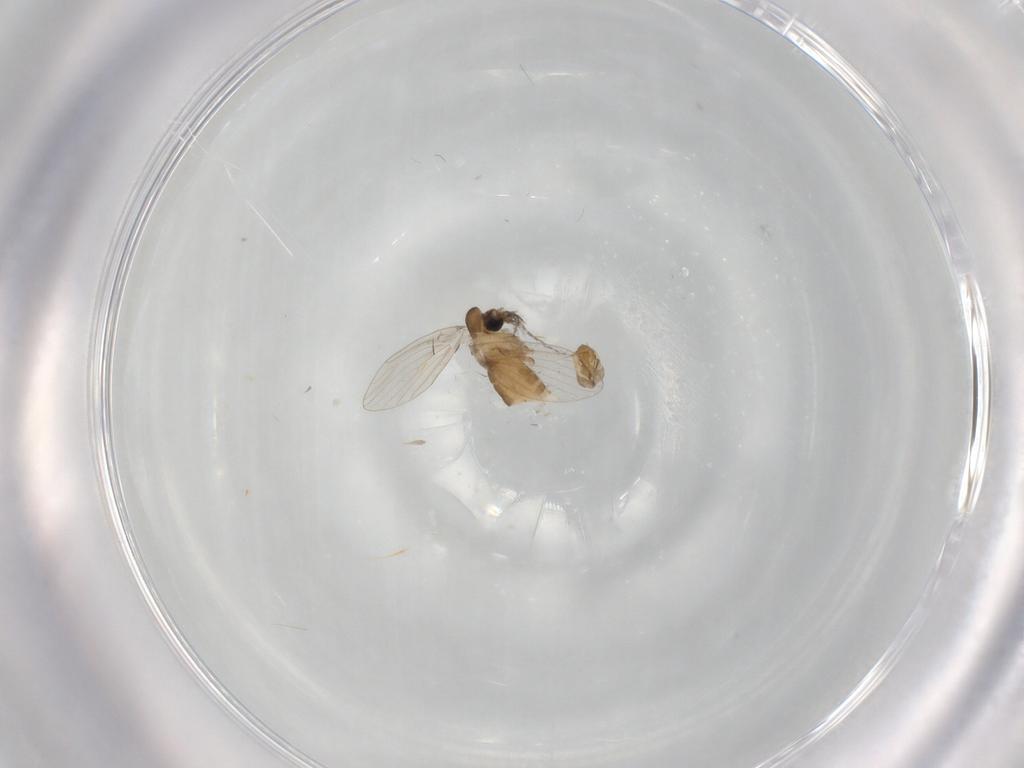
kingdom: Animalia
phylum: Arthropoda
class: Insecta
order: Diptera
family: Psychodidae
